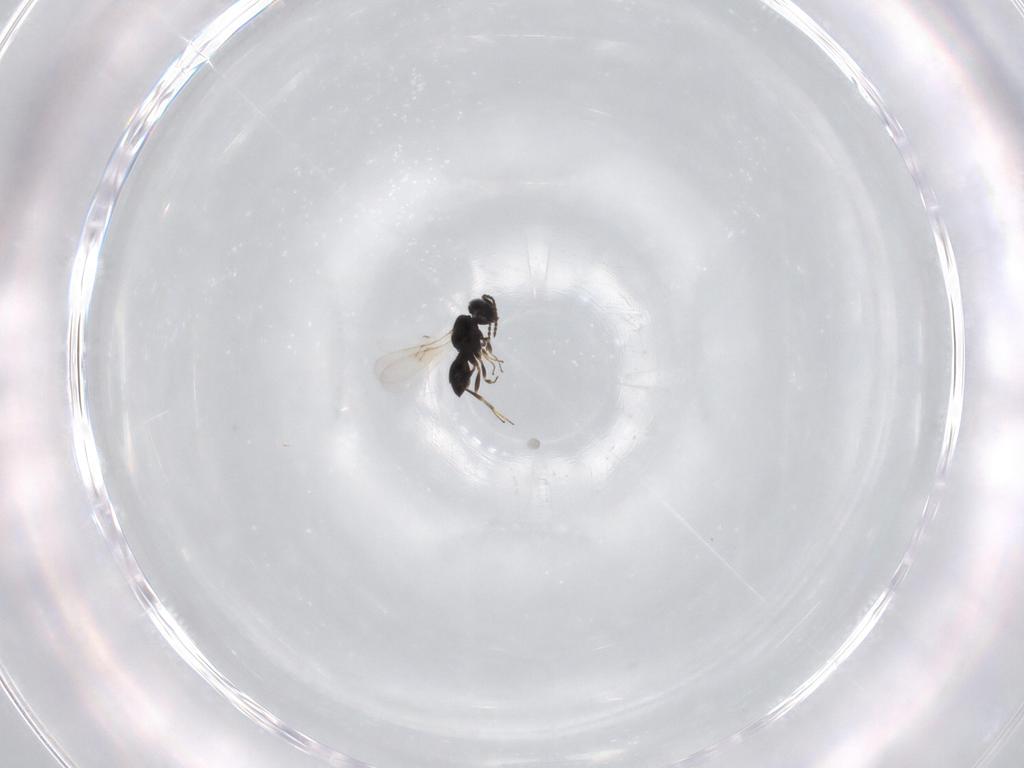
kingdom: Animalia
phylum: Arthropoda
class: Insecta
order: Hymenoptera
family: Scelionidae
